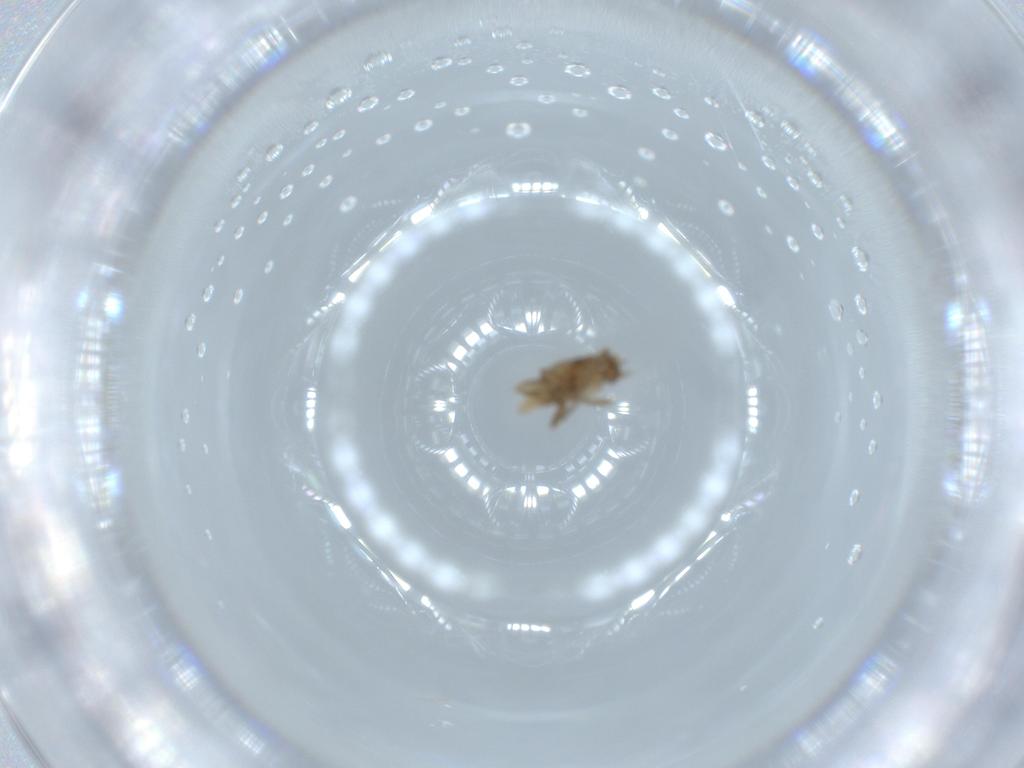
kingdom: Animalia
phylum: Arthropoda
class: Insecta
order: Diptera
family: Phoridae
